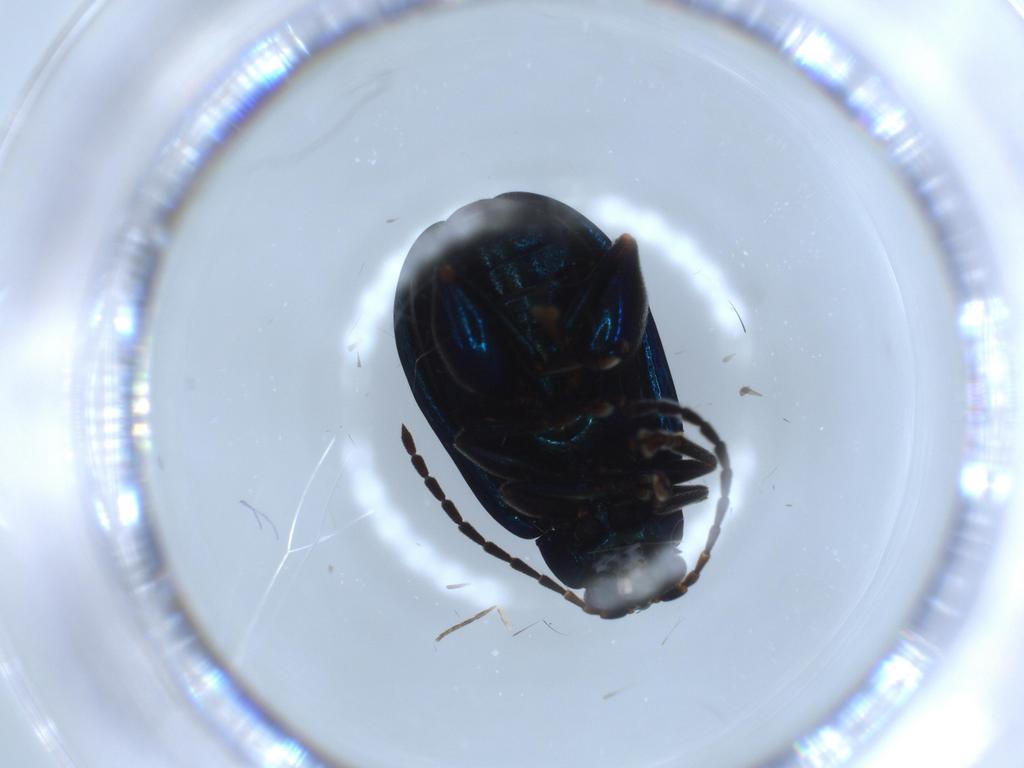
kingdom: Animalia
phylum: Arthropoda
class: Insecta
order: Coleoptera
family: Chrysomelidae
